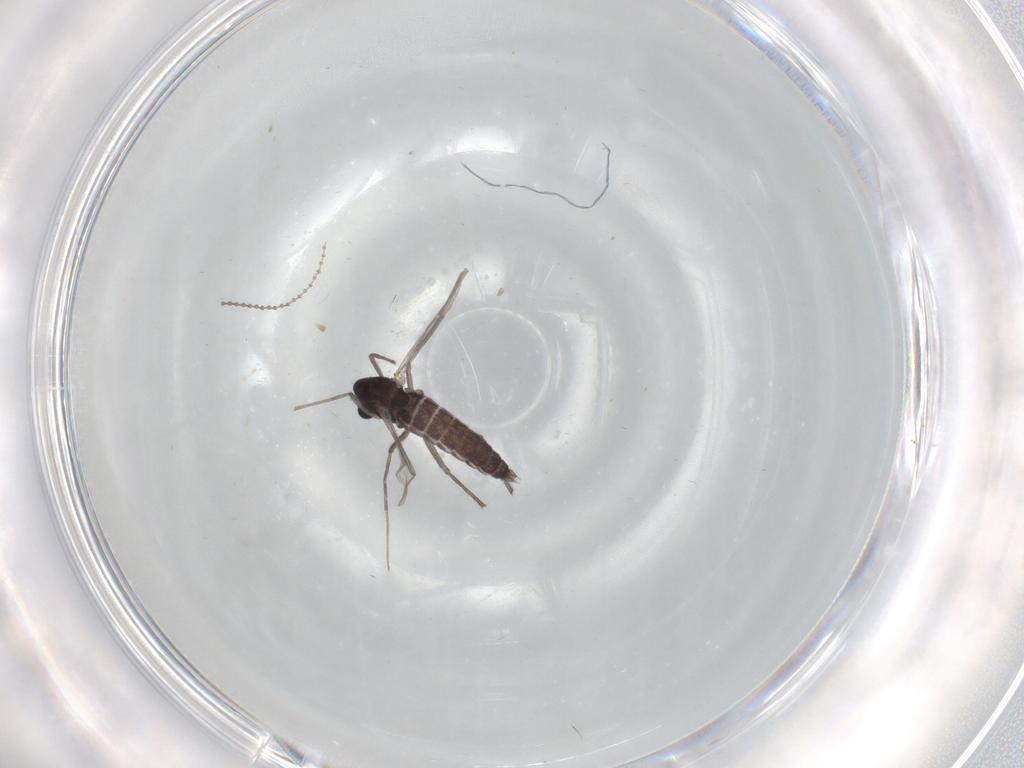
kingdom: Animalia
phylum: Arthropoda
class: Insecta
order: Diptera
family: Chironomidae
